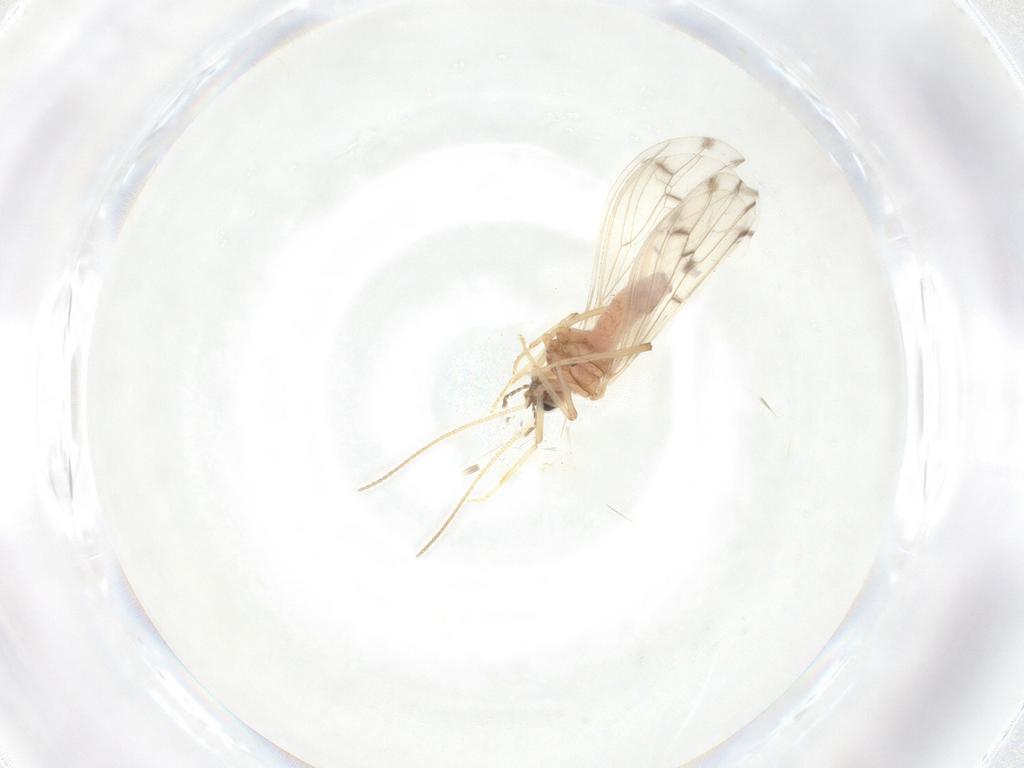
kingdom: Animalia
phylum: Arthropoda
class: Insecta
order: Neuroptera
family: Coniopterygidae
